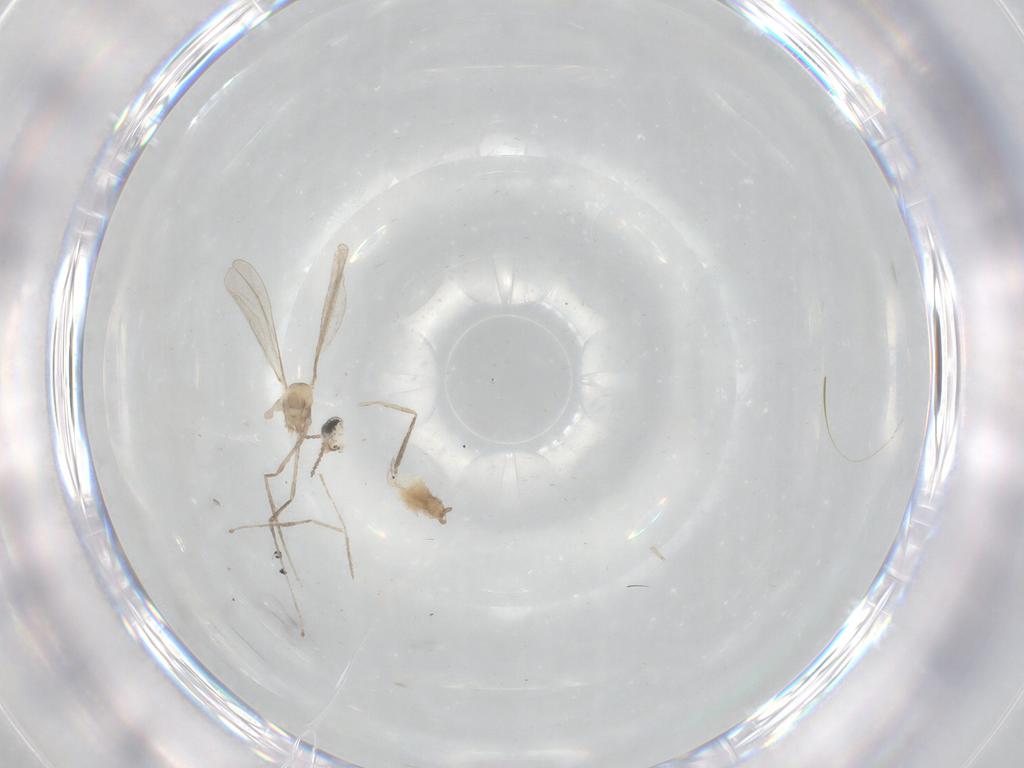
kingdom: Animalia
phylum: Arthropoda
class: Insecta
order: Diptera
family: Cecidomyiidae
